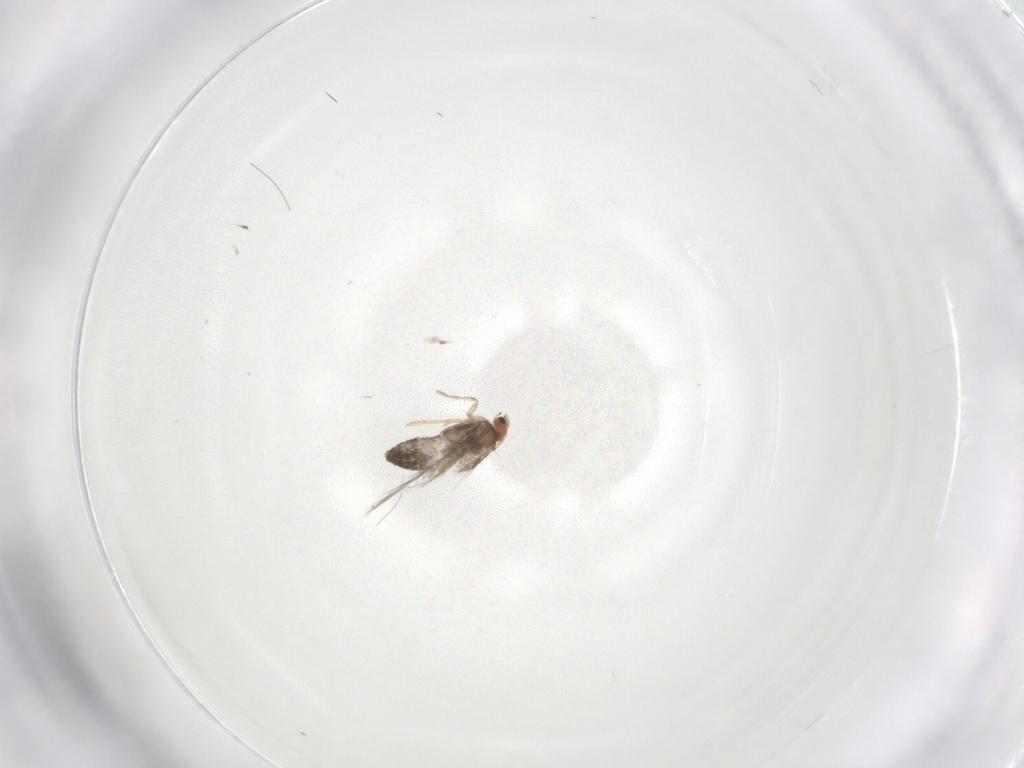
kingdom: Animalia
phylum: Arthropoda
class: Insecta
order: Lepidoptera
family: Nepticulidae
